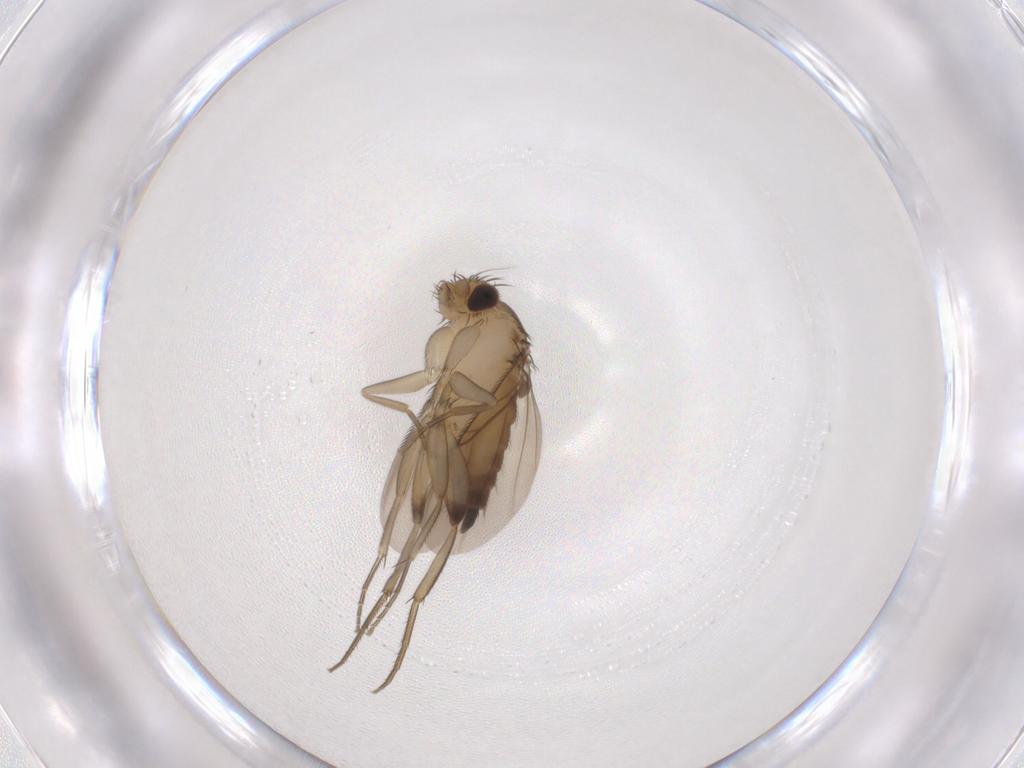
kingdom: Animalia
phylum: Arthropoda
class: Insecta
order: Diptera
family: Phoridae
